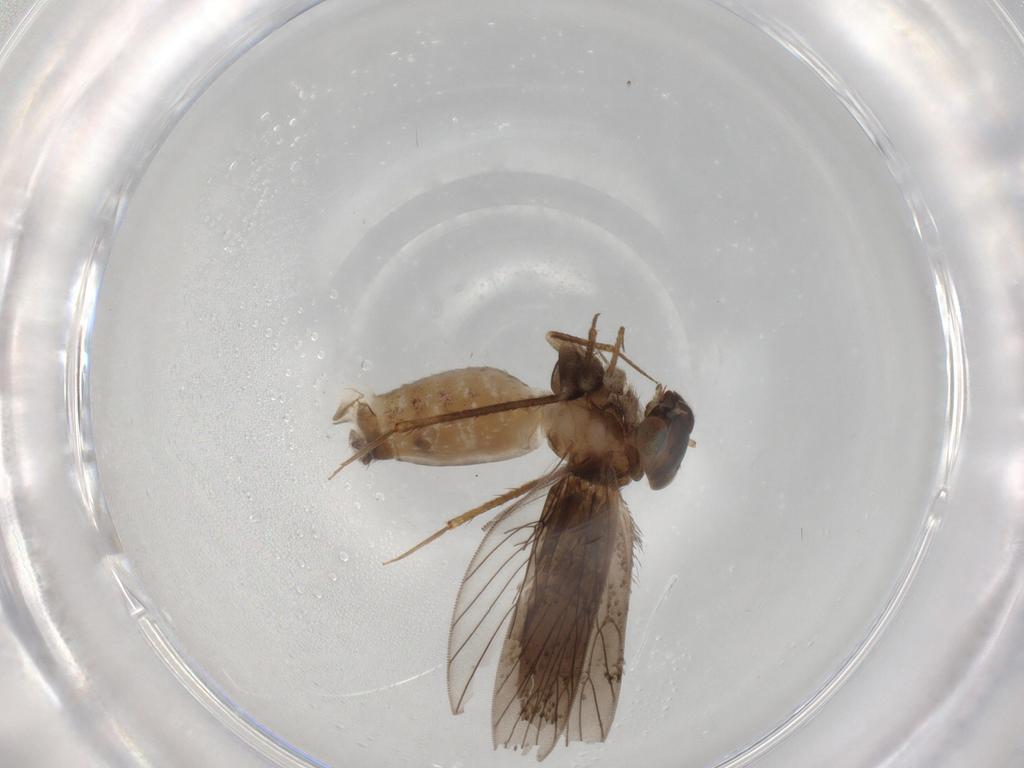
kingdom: Animalia
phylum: Arthropoda
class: Insecta
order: Psocodea
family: Lepidopsocidae
